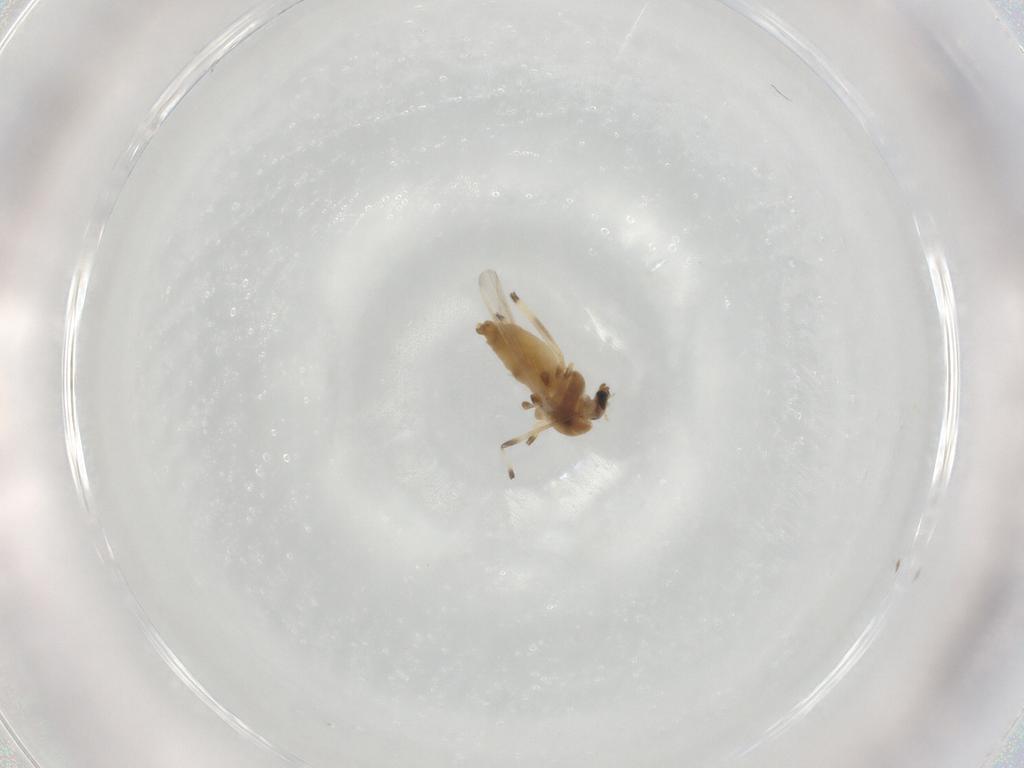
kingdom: Animalia
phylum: Arthropoda
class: Insecta
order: Diptera
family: Chironomidae
